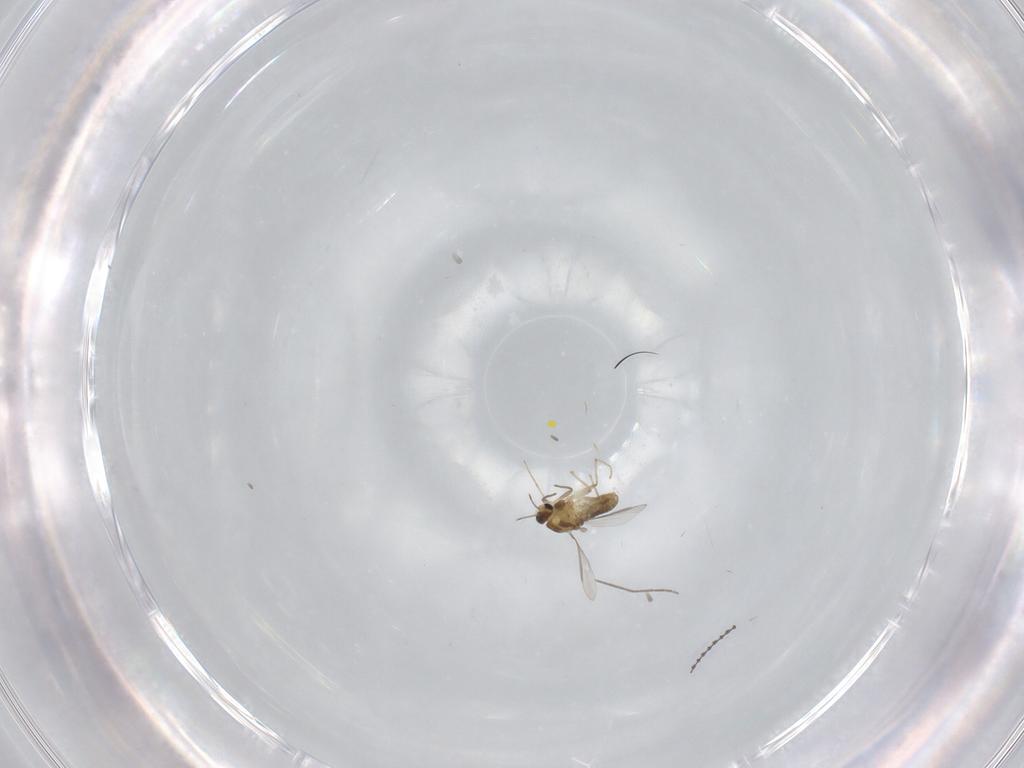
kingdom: Animalia
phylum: Arthropoda
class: Insecta
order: Diptera
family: Chironomidae
